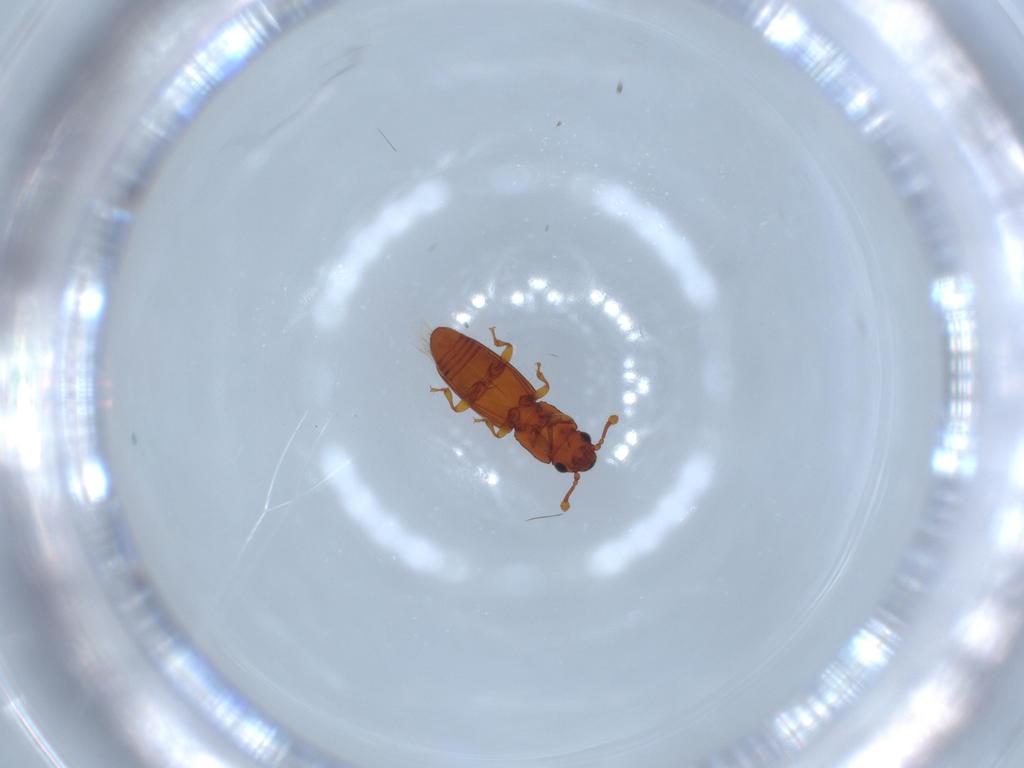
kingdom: Animalia
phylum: Arthropoda
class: Insecta
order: Coleoptera
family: Monotomidae
